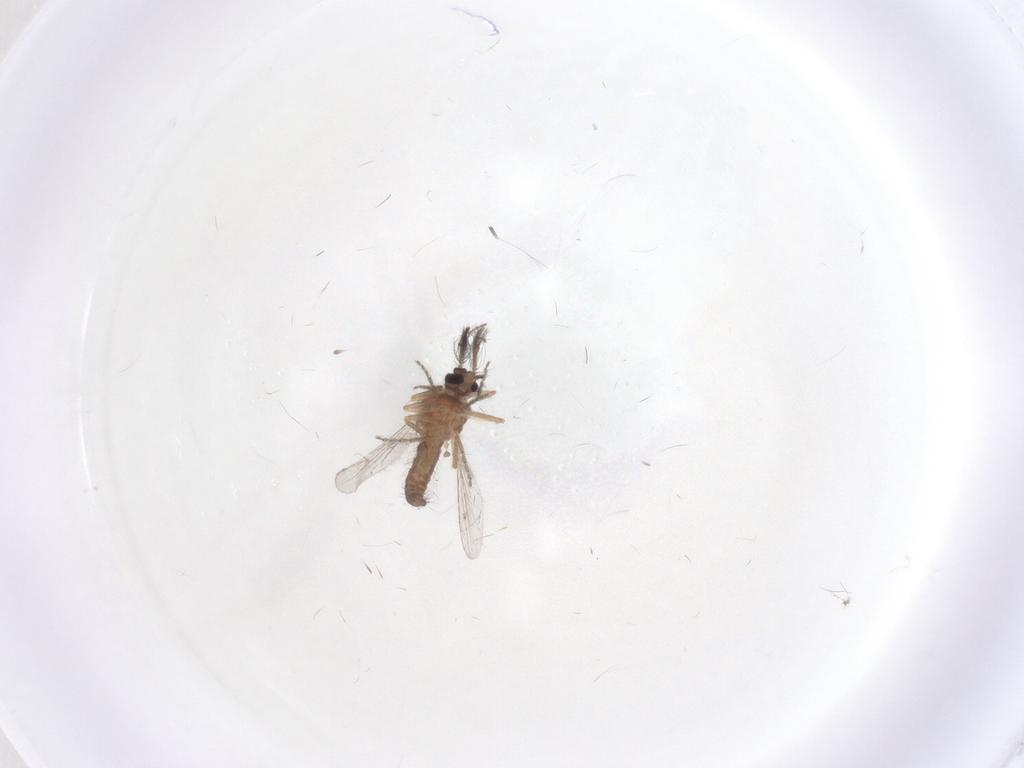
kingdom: Animalia
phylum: Arthropoda
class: Insecta
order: Diptera
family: Ceratopogonidae
